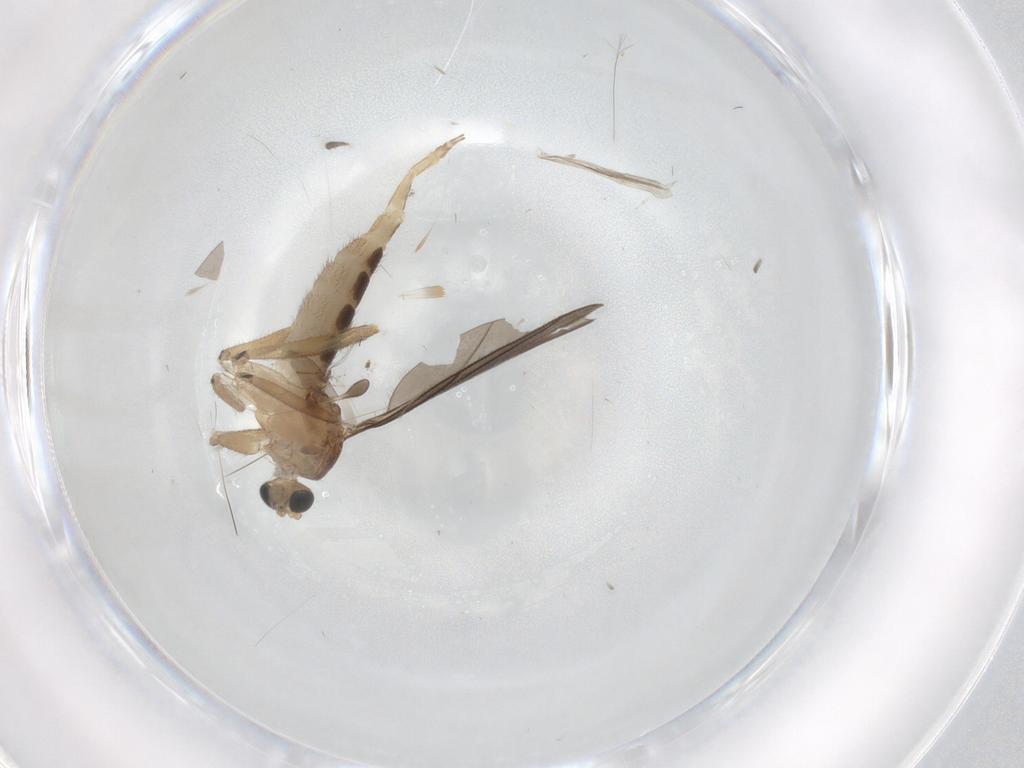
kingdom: Animalia
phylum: Arthropoda
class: Insecta
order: Diptera
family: Sciaridae
